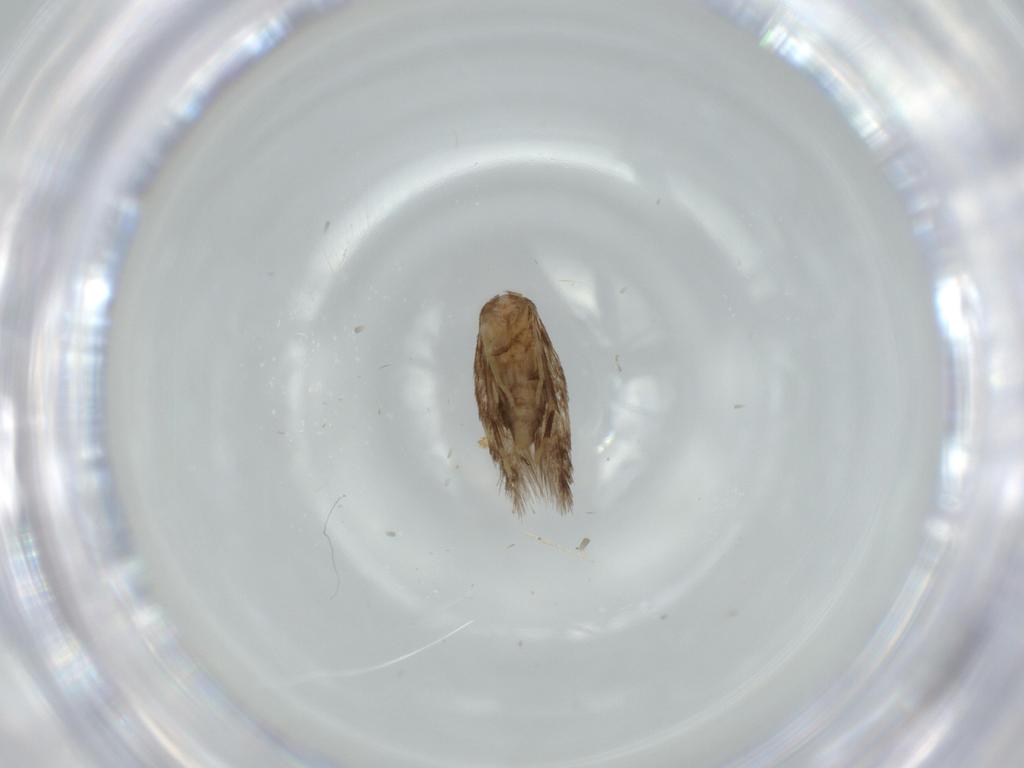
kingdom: Animalia
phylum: Arthropoda
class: Insecta
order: Lepidoptera
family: Nepticulidae
